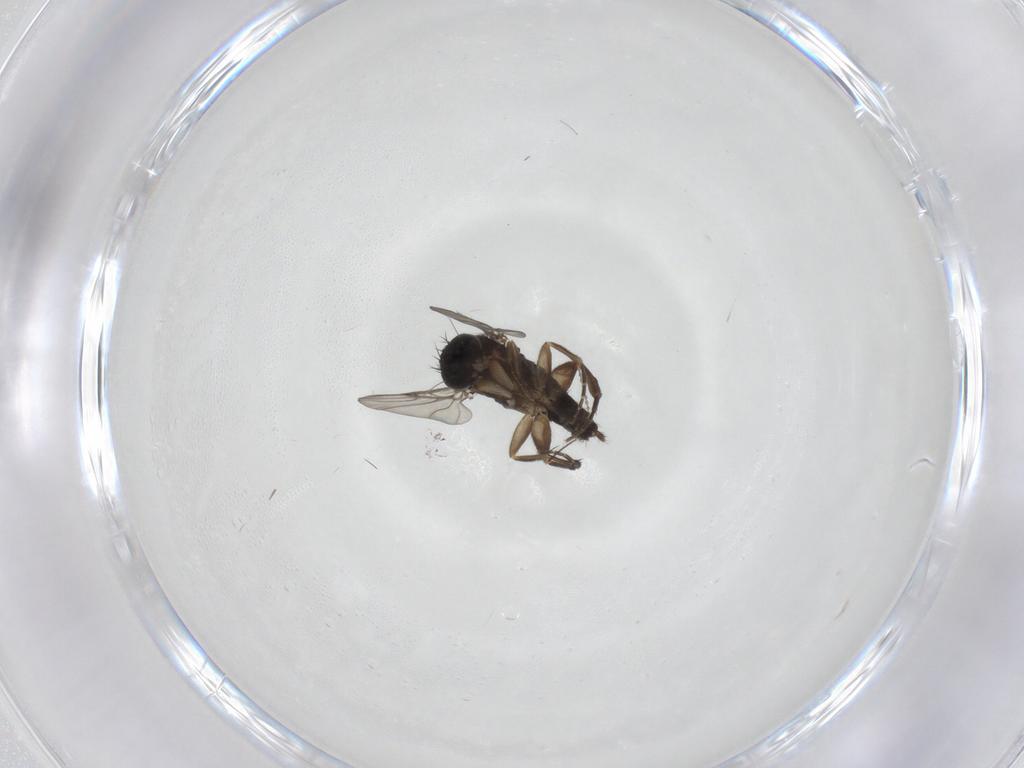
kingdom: Animalia
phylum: Arthropoda
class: Insecta
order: Diptera
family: Phoridae
